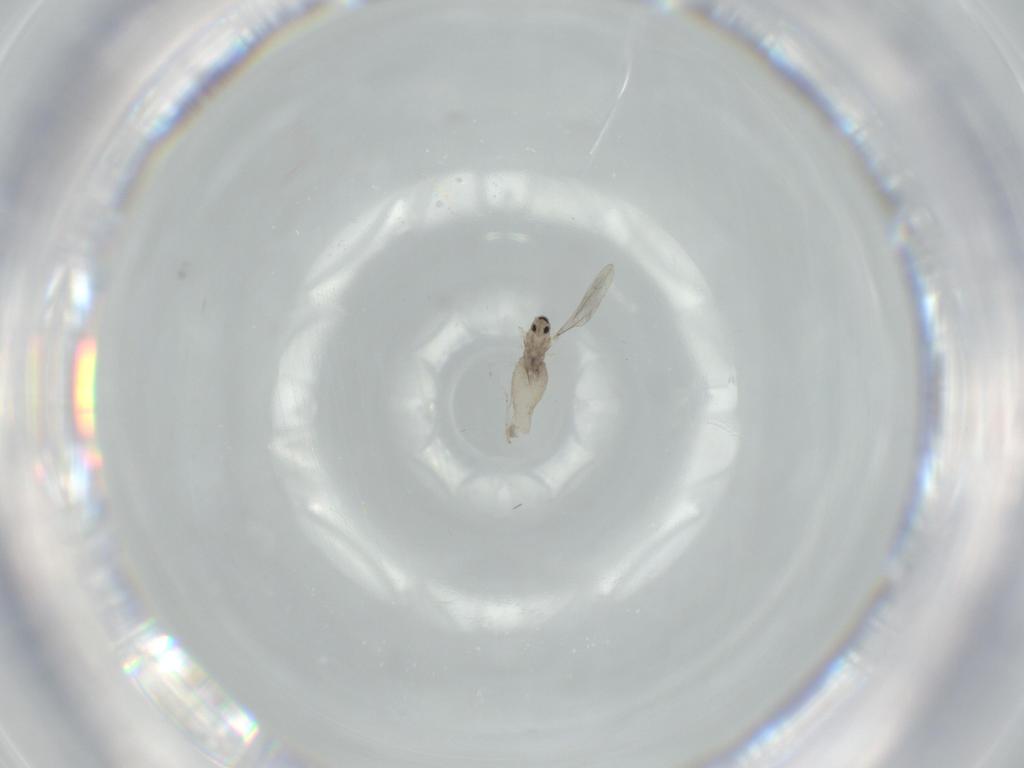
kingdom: Animalia
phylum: Arthropoda
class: Insecta
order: Diptera
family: Cecidomyiidae
